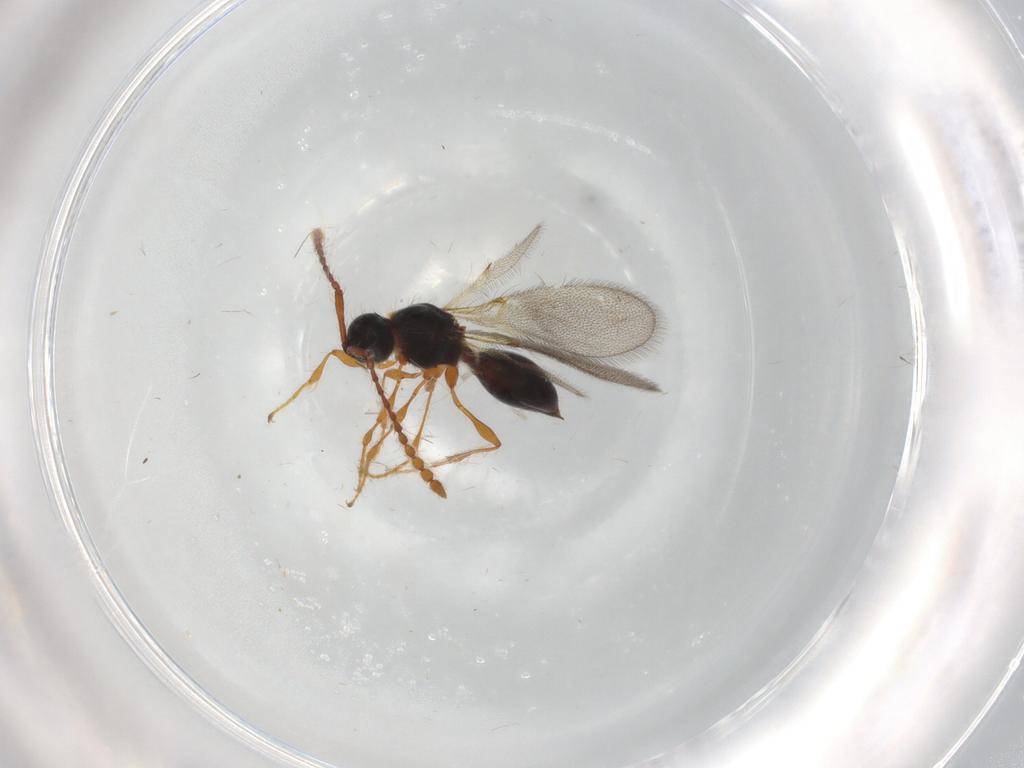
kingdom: Animalia
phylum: Arthropoda
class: Insecta
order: Hymenoptera
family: Diapriidae
